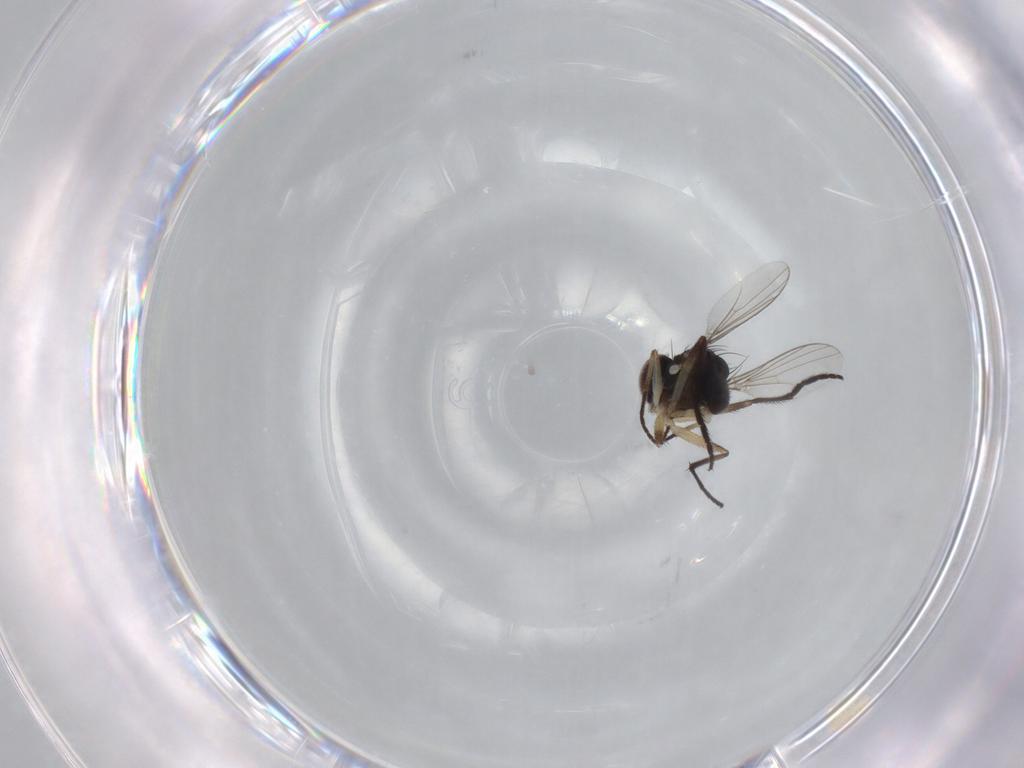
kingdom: Animalia
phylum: Arthropoda
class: Insecta
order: Diptera
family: Dolichopodidae
